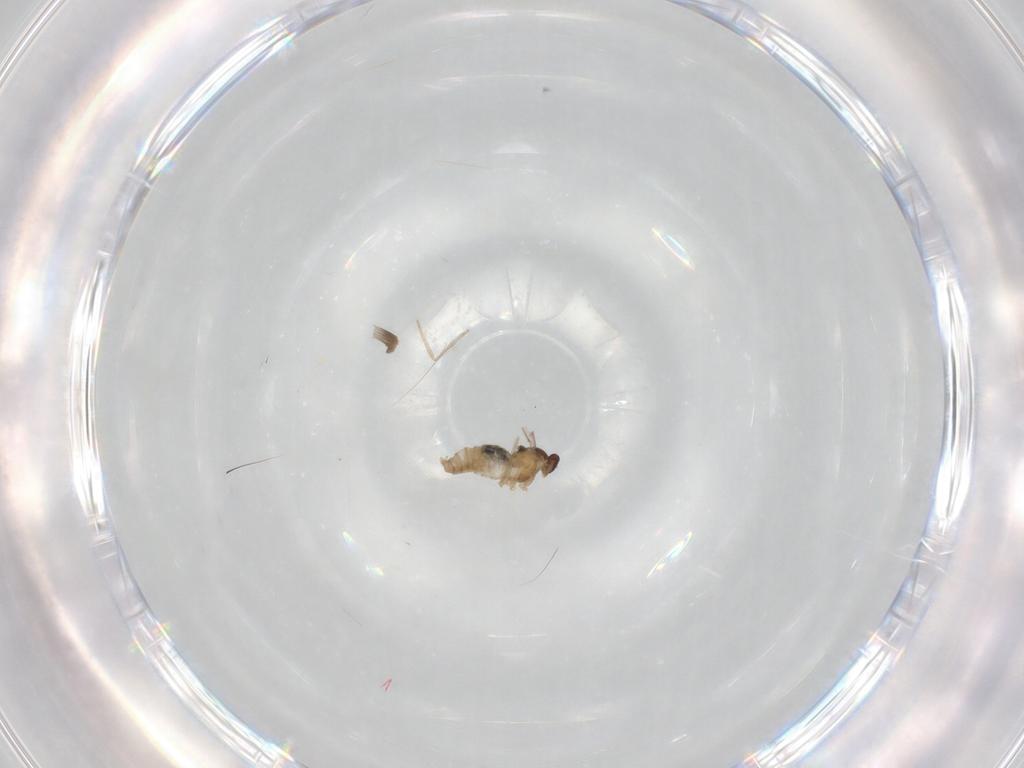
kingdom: Animalia
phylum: Arthropoda
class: Insecta
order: Diptera
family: Cecidomyiidae
